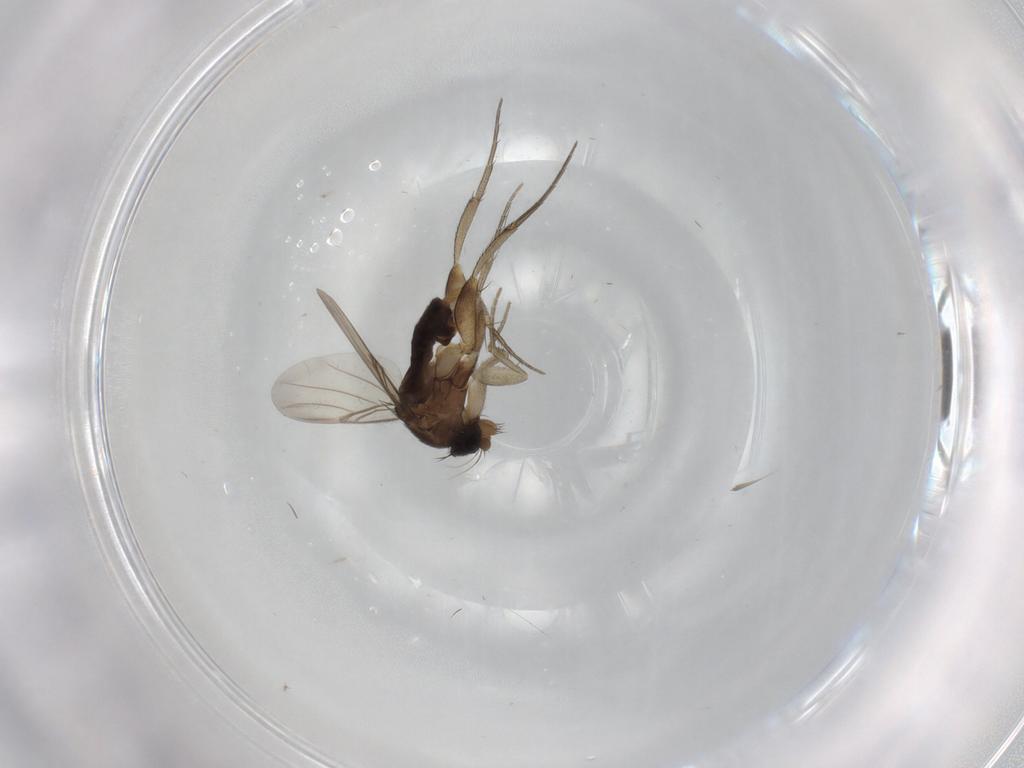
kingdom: Animalia
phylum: Arthropoda
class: Insecta
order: Diptera
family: Phoridae
